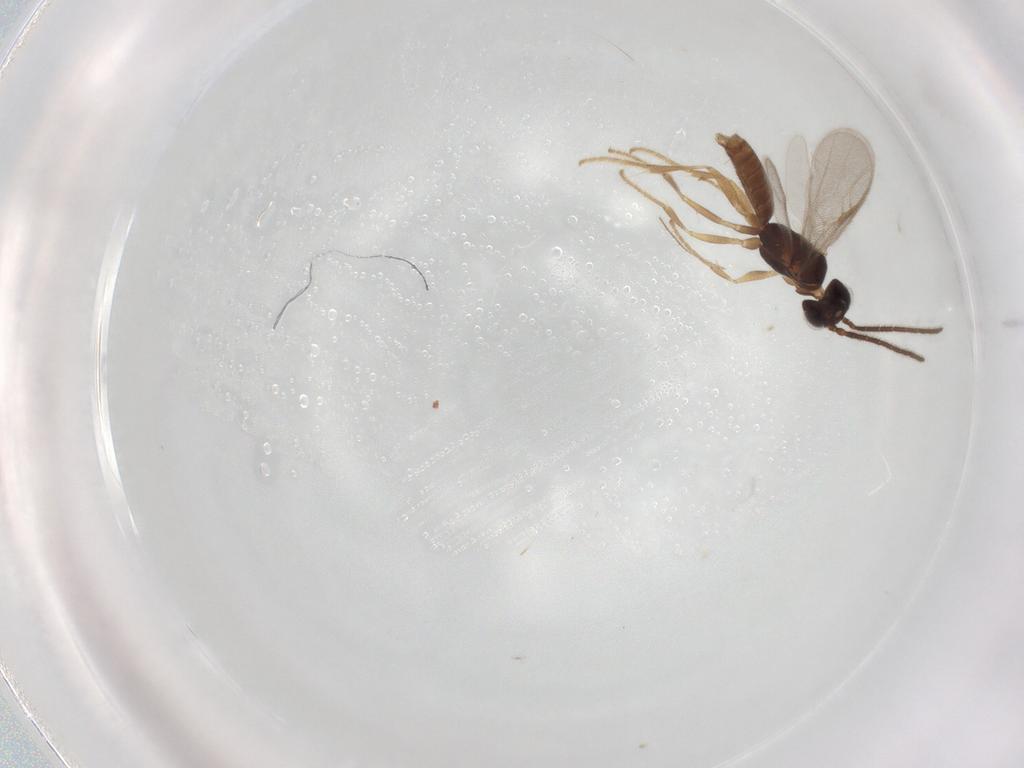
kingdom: Animalia
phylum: Arthropoda
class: Insecta
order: Hymenoptera
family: Dryinidae
